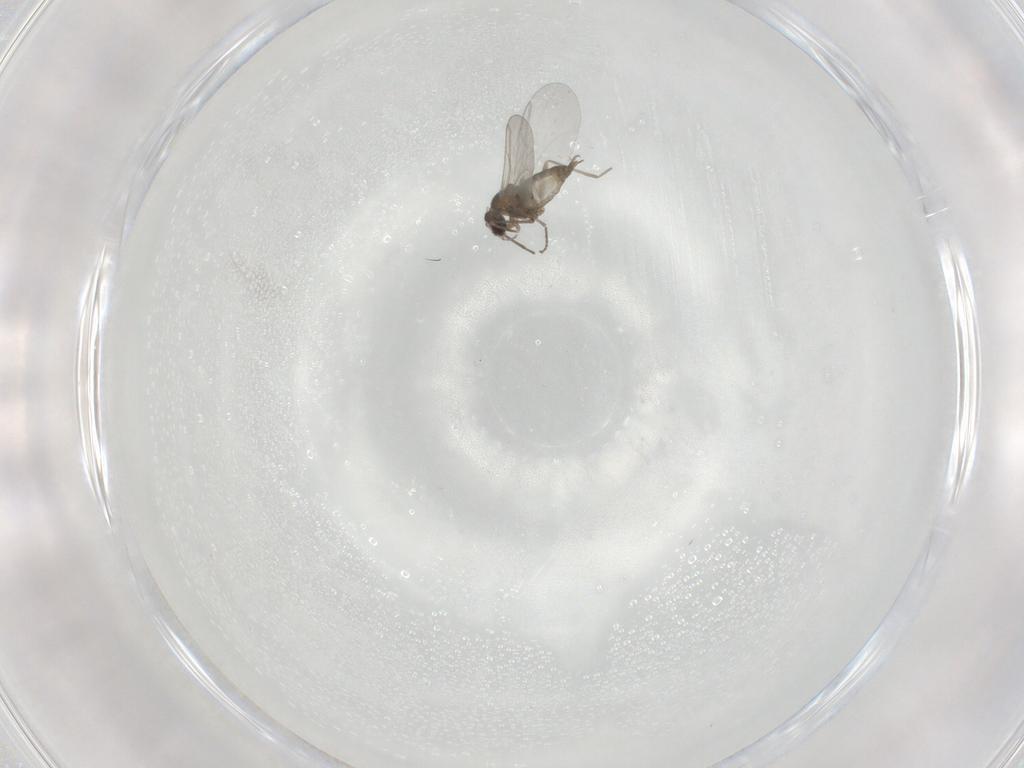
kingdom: Animalia
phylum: Arthropoda
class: Insecta
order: Diptera
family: Cecidomyiidae
